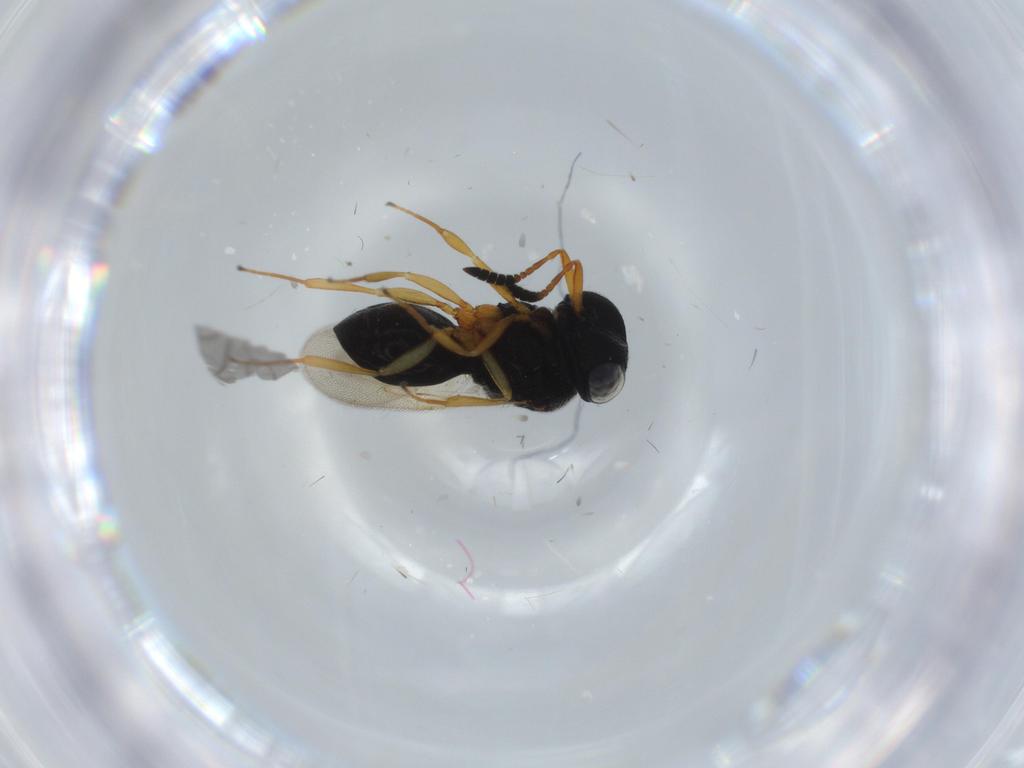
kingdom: Animalia
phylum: Arthropoda
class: Insecta
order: Hymenoptera
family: Scelionidae
